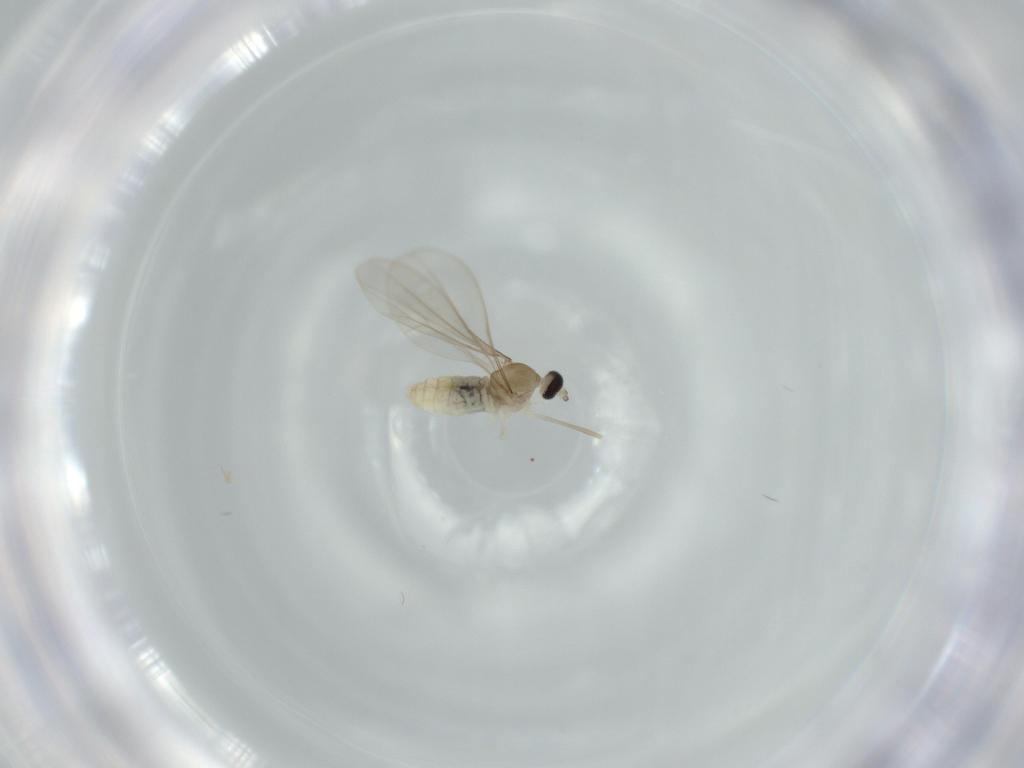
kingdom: Animalia
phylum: Arthropoda
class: Insecta
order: Diptera
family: Cecidomyiidae
